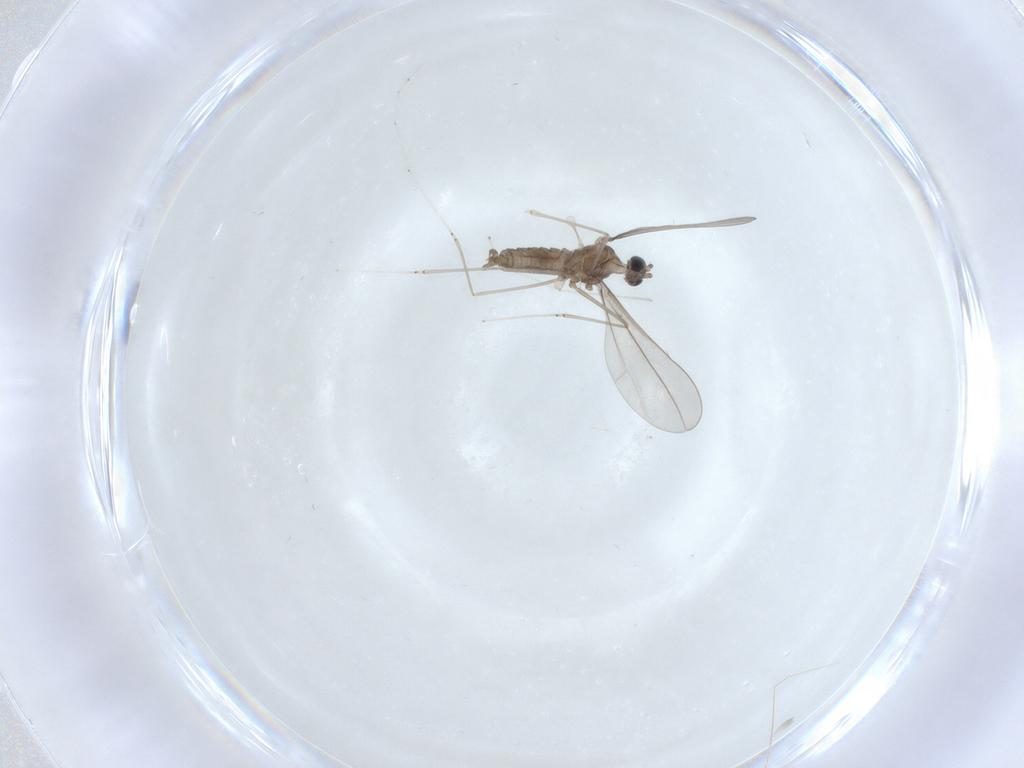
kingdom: Animalia
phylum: Arthropoda
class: Insecta
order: Diptera
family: Cecidomyiidae
